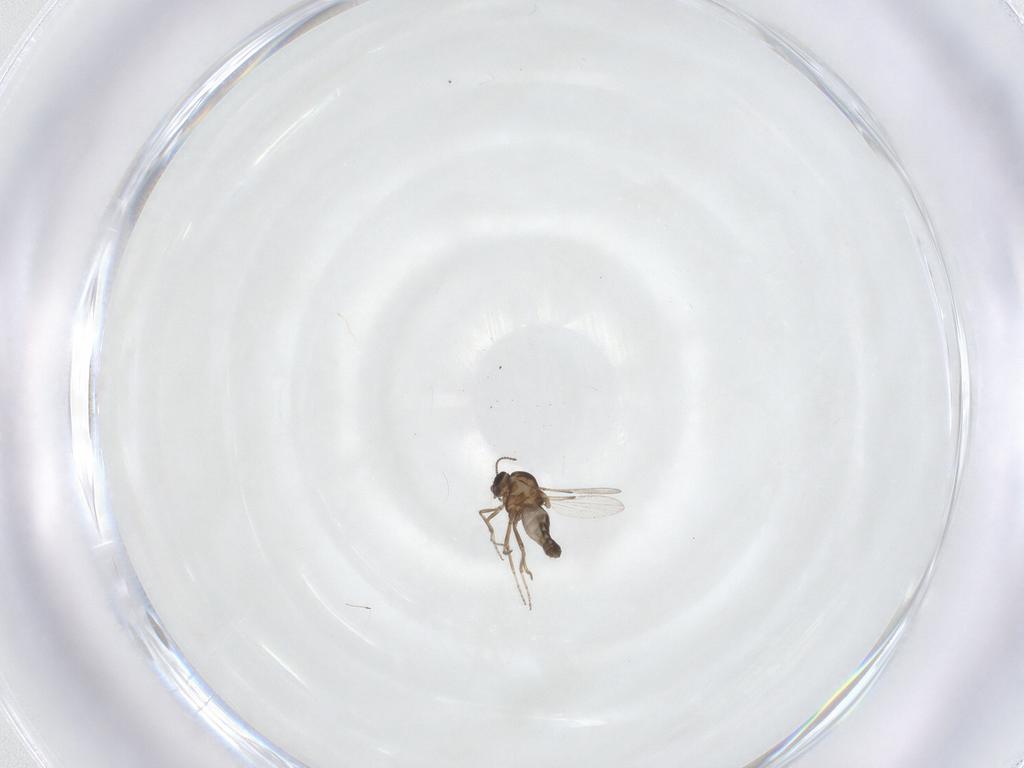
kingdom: Animalia
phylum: Arthropoda
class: Insecta
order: Diptera
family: Ceratopogonidae
